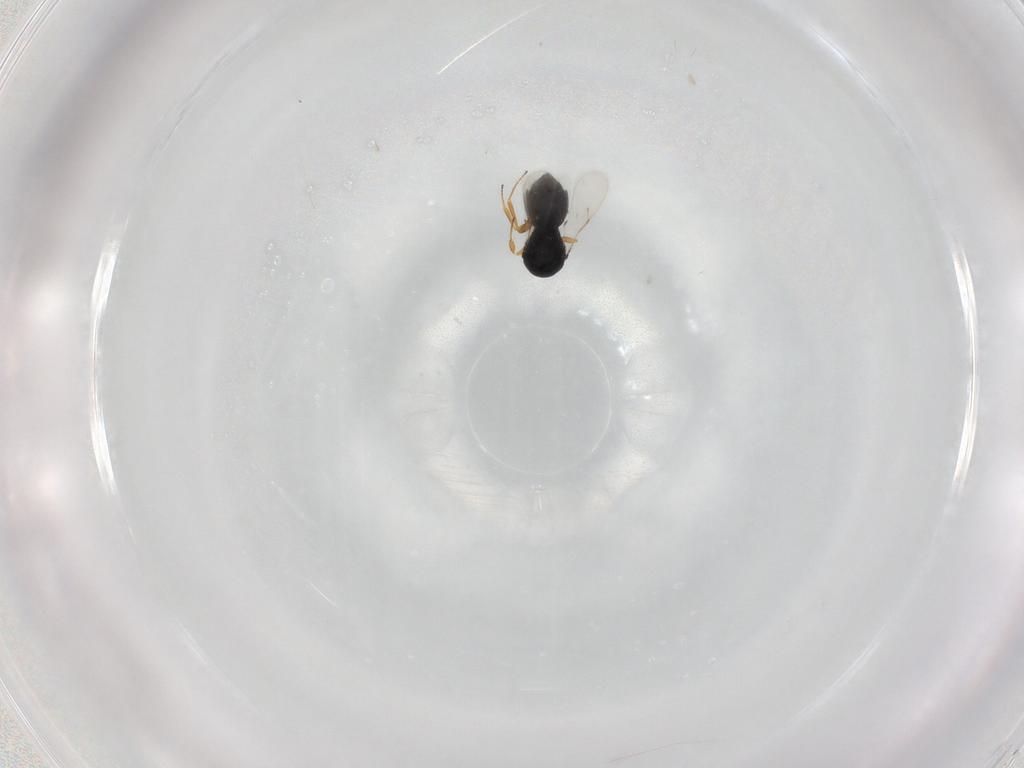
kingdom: Animalia
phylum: Arthropoda
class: Insecta
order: Hymenoptera
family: Scelionidae
